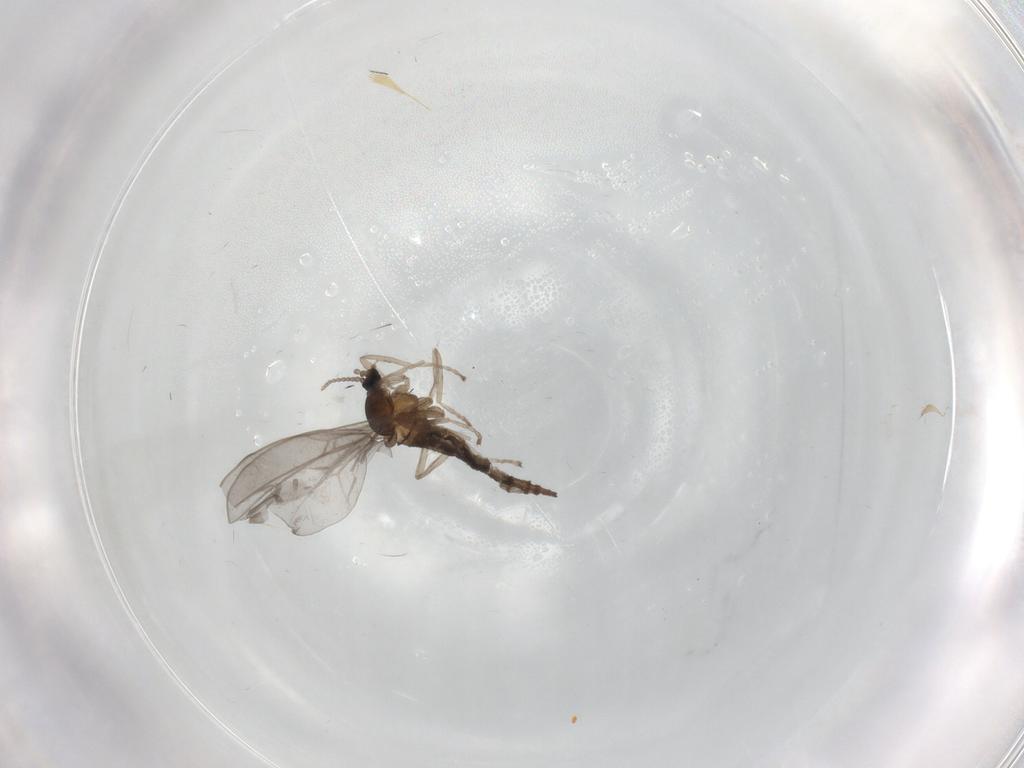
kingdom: Animalia
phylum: Arthropoda
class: Insecta
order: Diptera
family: Cecidomyiidae
